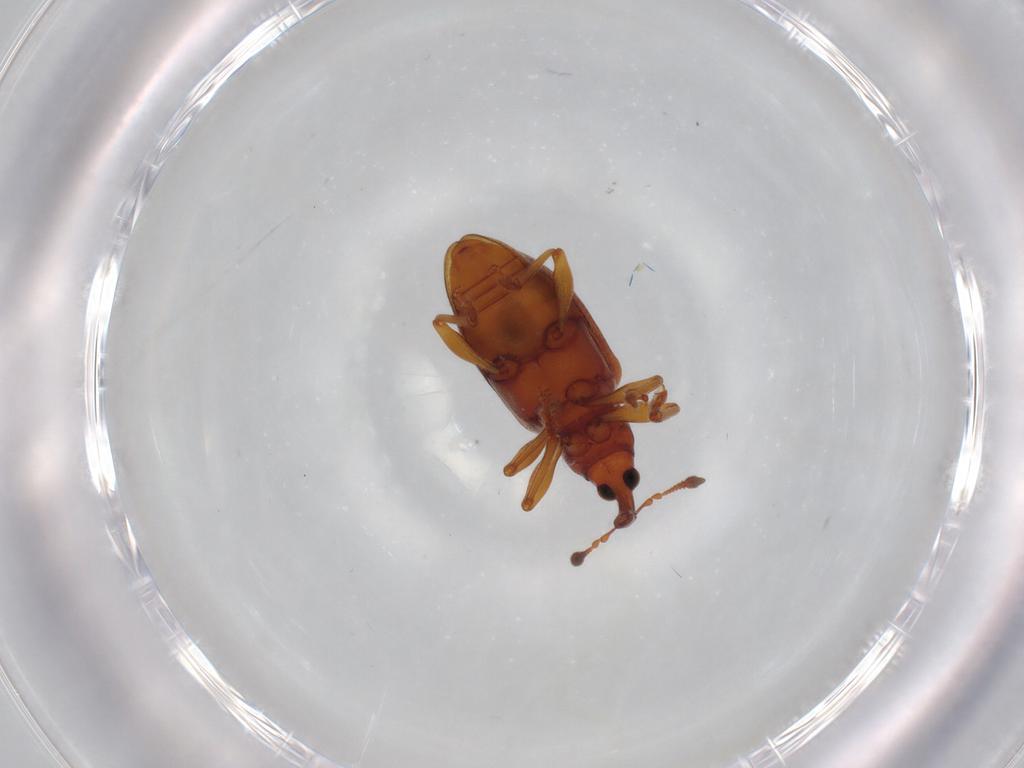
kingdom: Animalia
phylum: Arthropoda
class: Insecta
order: Coleoptera
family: Curculionidae
